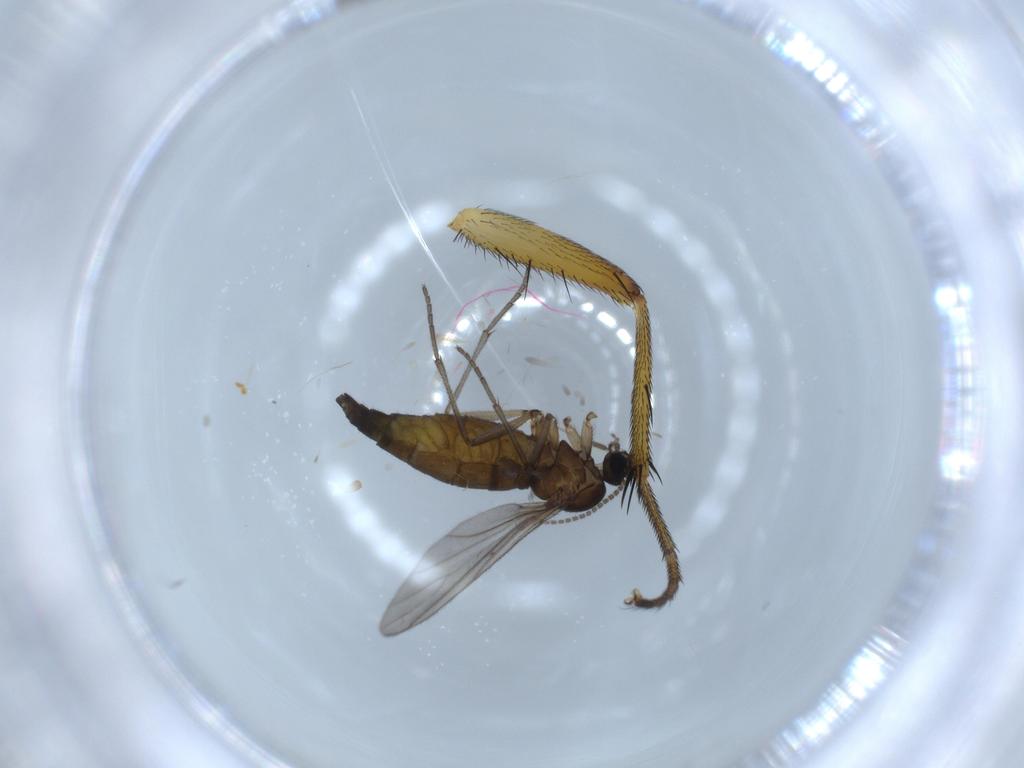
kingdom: Animalia
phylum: Arthropoda
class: Insecta
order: Diptera
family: Sciaridae
